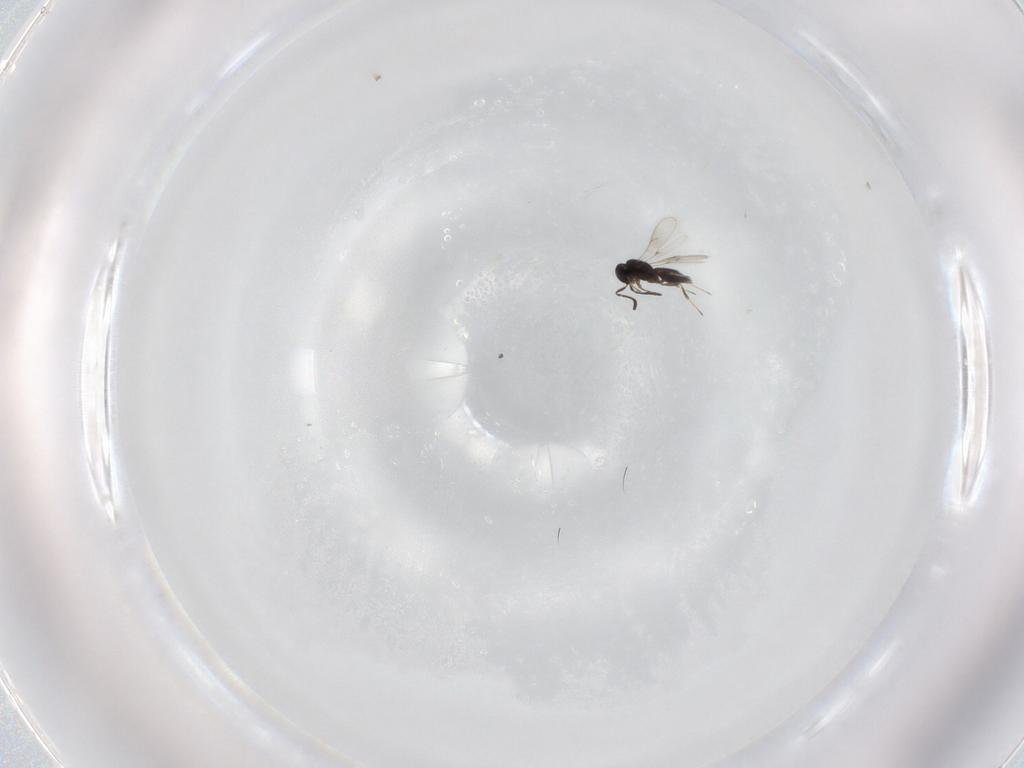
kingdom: Animalia
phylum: Arthropoda
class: Insecta
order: Hymenoptera
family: Scelionidae
